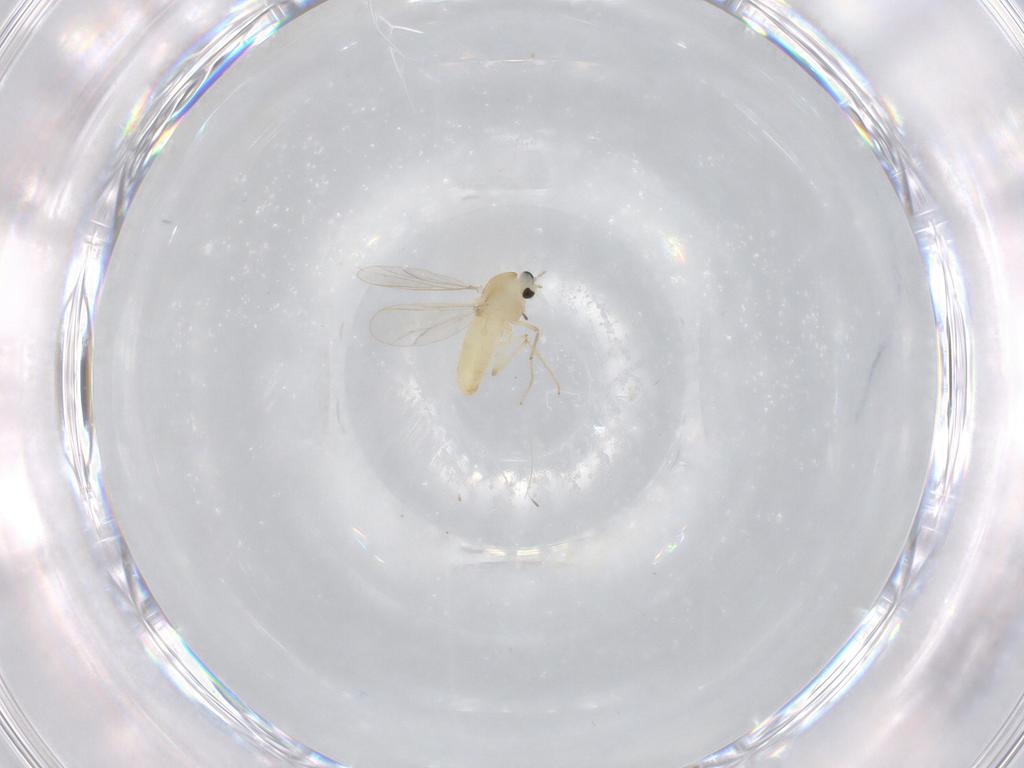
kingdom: Animalia
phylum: Arthropoda
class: Insecta
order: Diptera
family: Chironomidae
